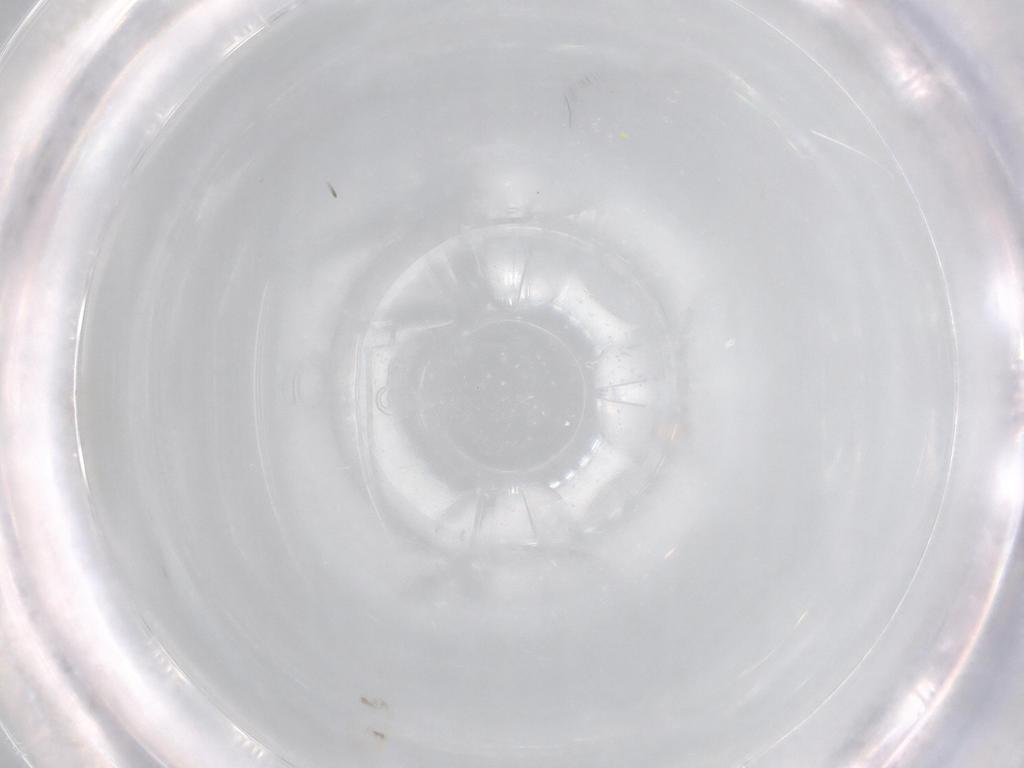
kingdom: Animalia
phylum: Arthropoda
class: Insecta
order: Hemiptera
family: Aleyrodidae
